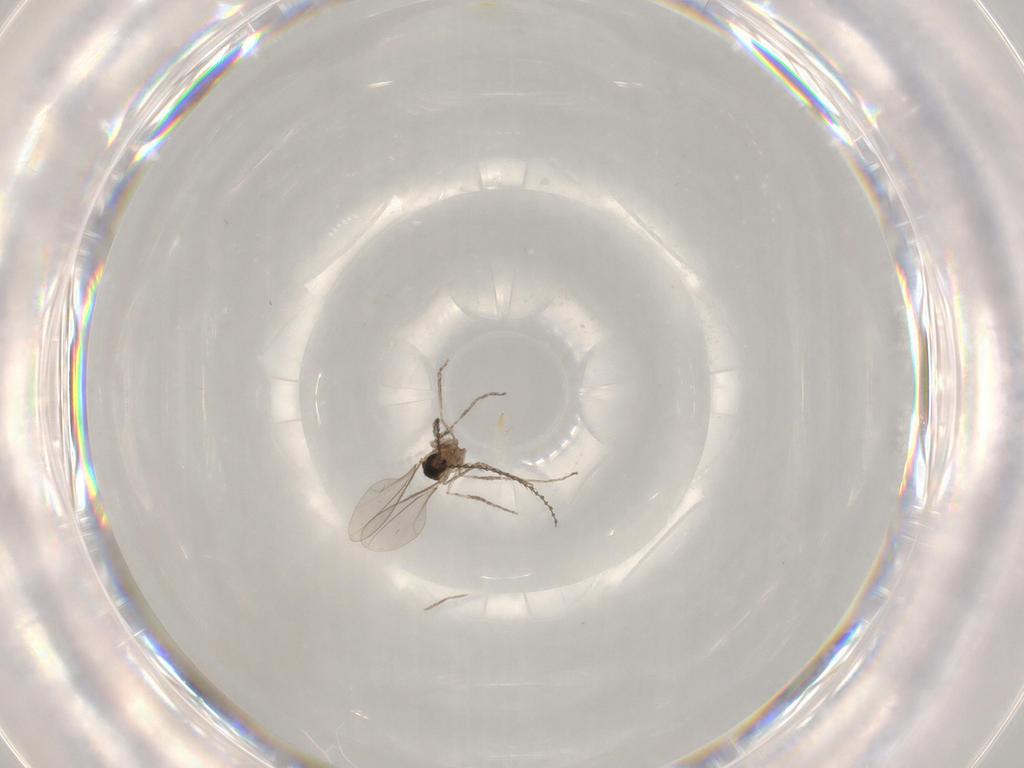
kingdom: Animalia
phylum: Arthropoda
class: Insecta
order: Diptera
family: Cecidomyiidae
